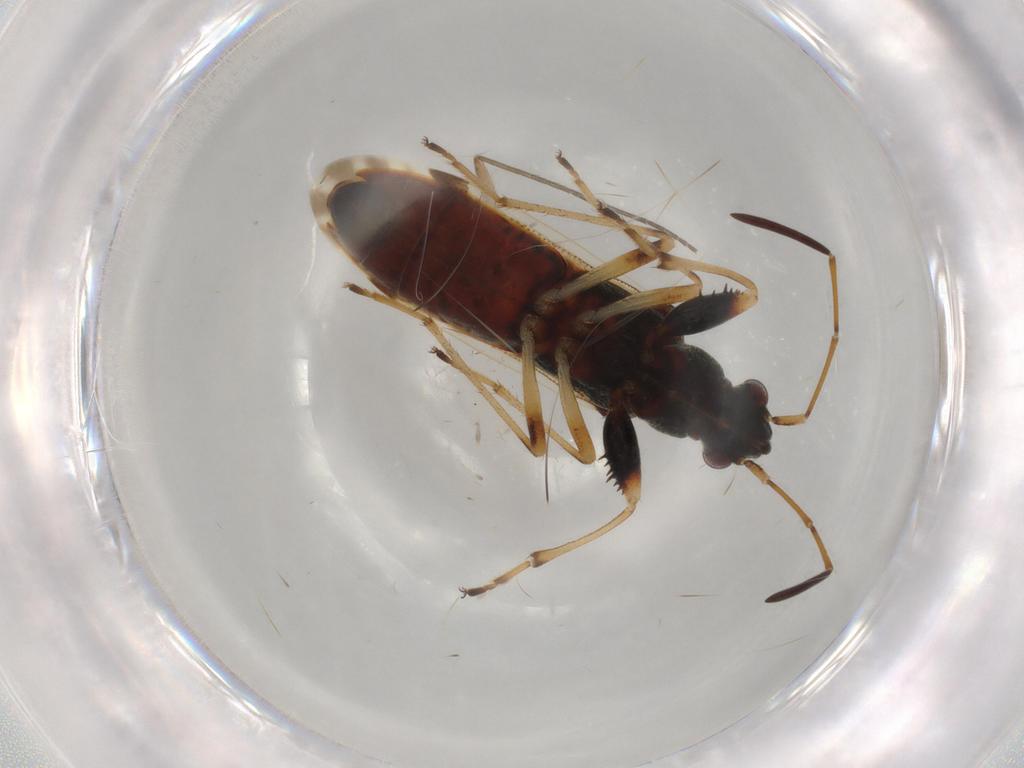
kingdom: Animalia
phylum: Arthropoda
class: Insecta
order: Hemiptera
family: Rhyparochromidae
